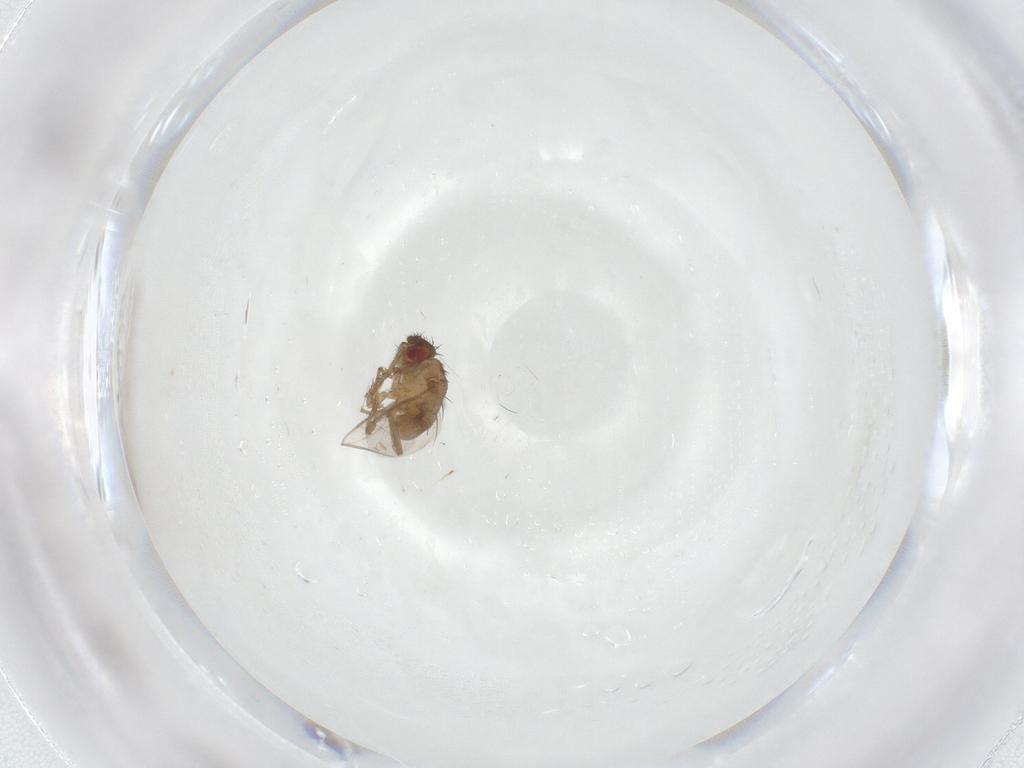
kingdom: Animalia
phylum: Arthropoda
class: Insecta
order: Diptera
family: Sphaeroceridae
